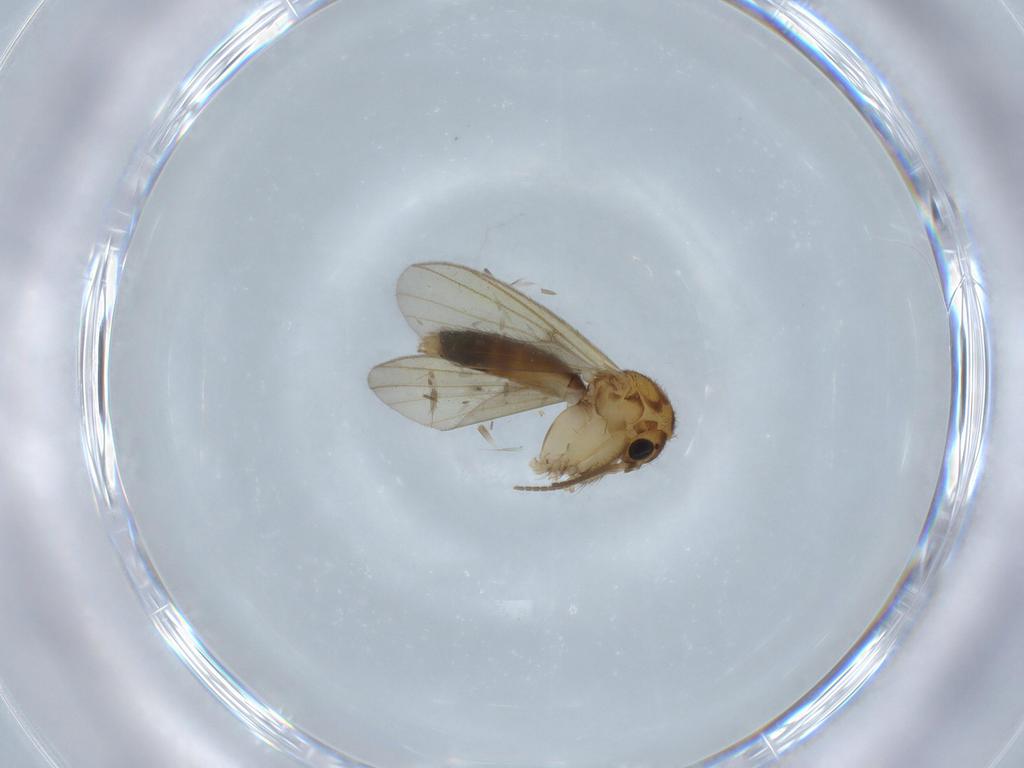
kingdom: Animalia
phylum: Arthropoda
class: Insecta
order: Diptera
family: Mycetophilidae
